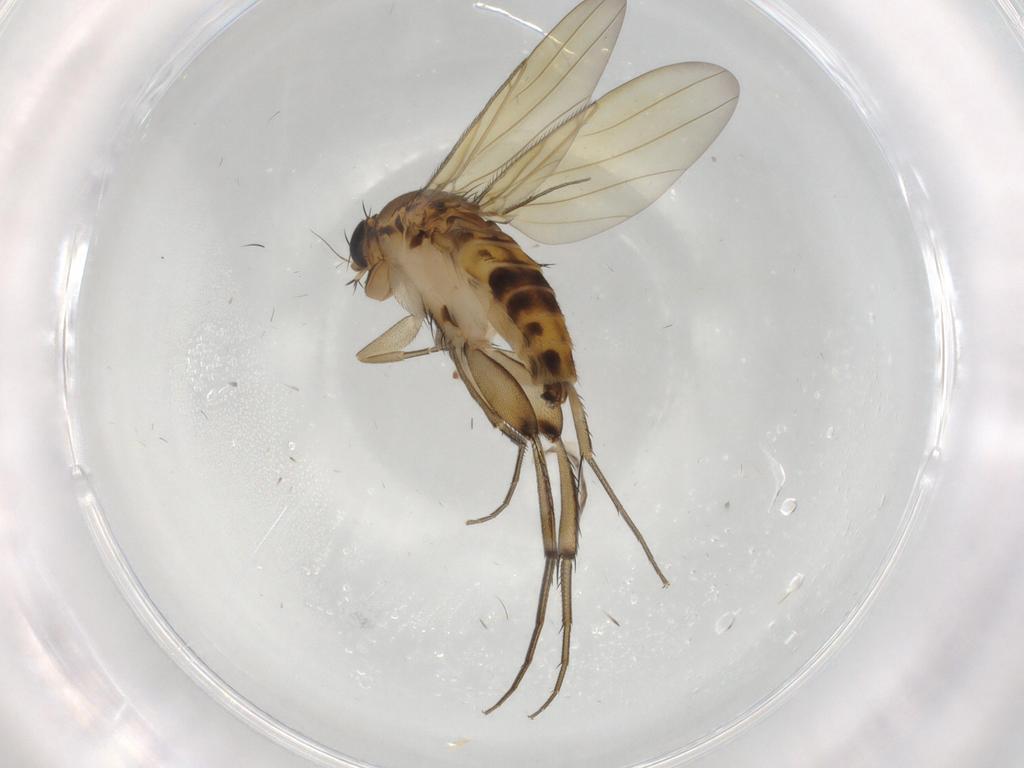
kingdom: Animalia
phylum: Arthropoda
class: Insecta
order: Diptera
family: Phoridae
